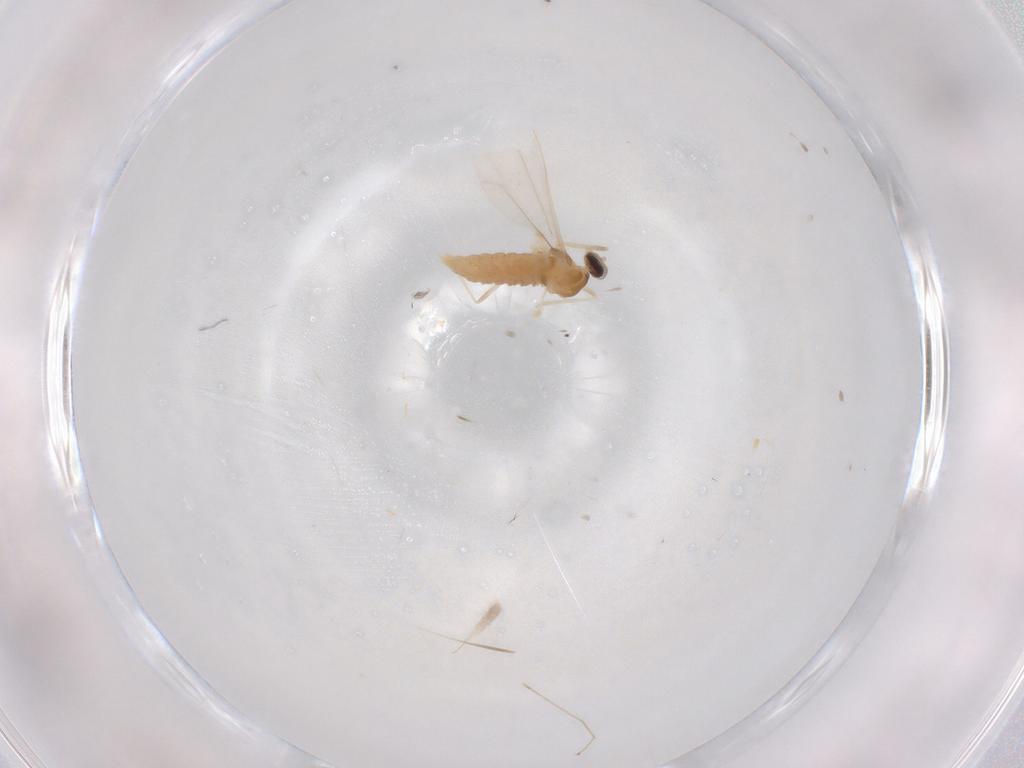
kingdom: Animalia
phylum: Arthropoda
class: Insecta
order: Diptera
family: Cecidomyiidae
